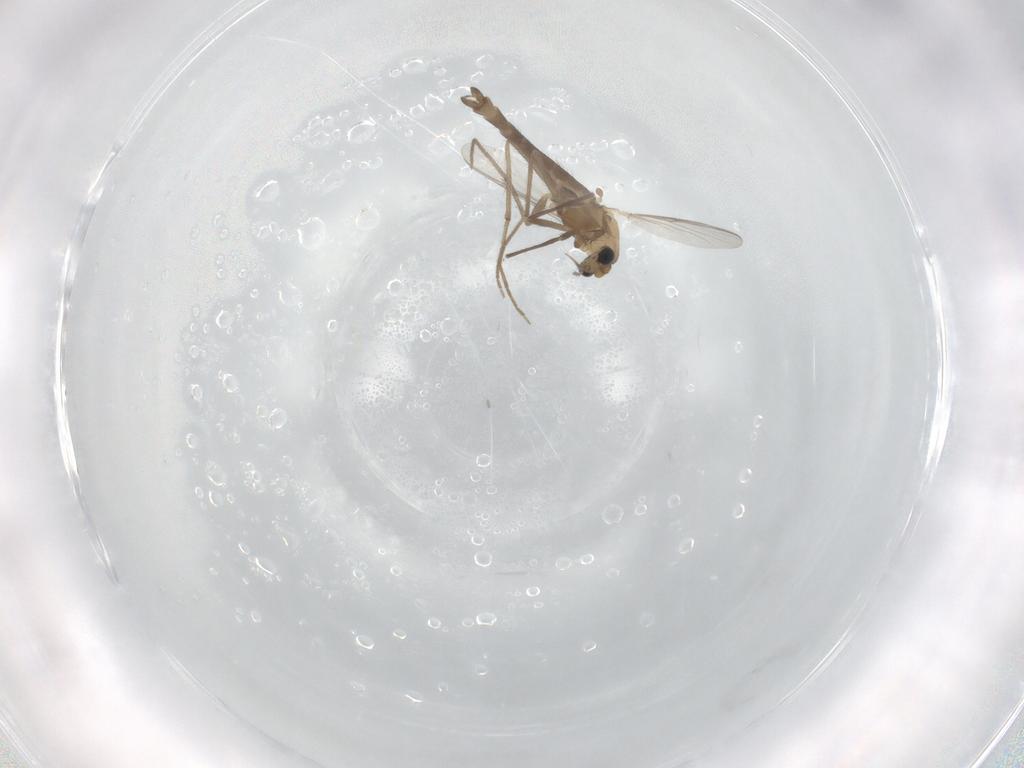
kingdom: Animalia
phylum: Arthropoda
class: Insecta
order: Diptera
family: Chironomidae
